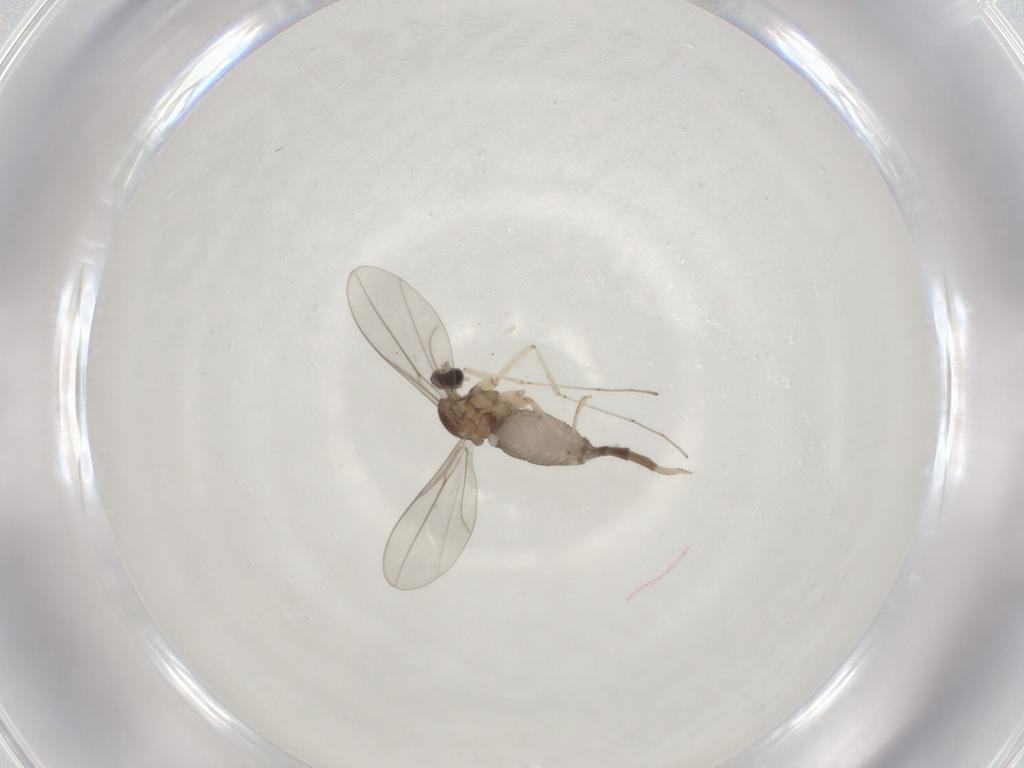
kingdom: Animalia
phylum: Arthropoda
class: Insecta
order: Diptera
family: Cecidomyiidae
